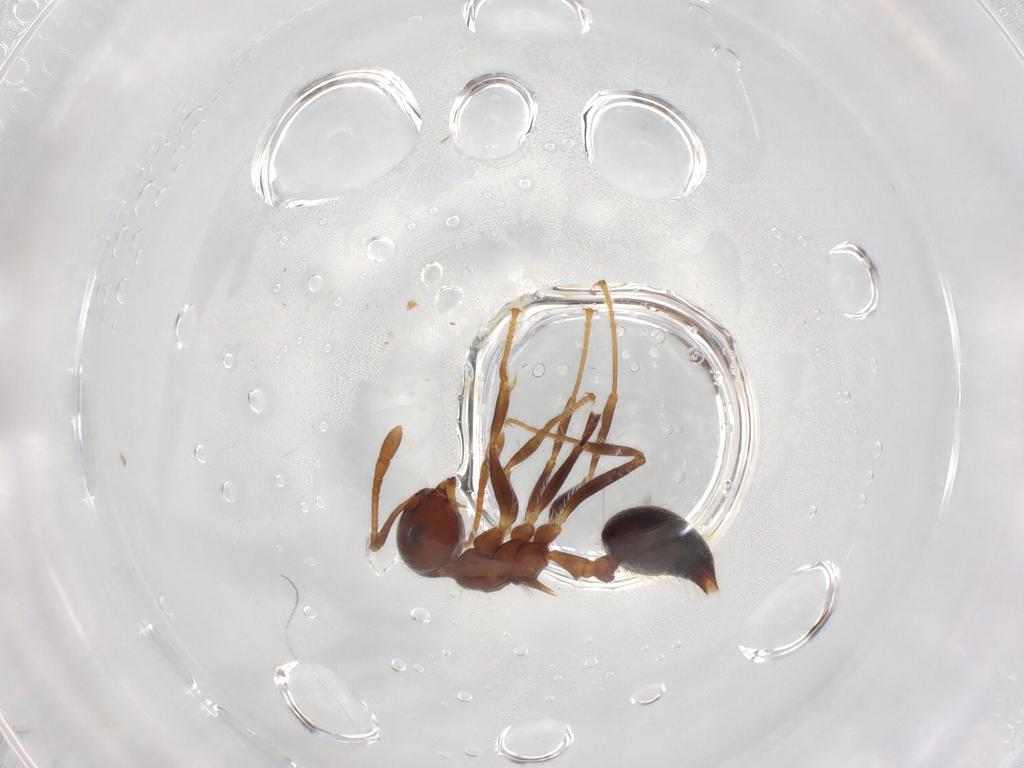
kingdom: Animalia
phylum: Arthropoda
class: Insecta
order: Hymenoptera
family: Formicidae
